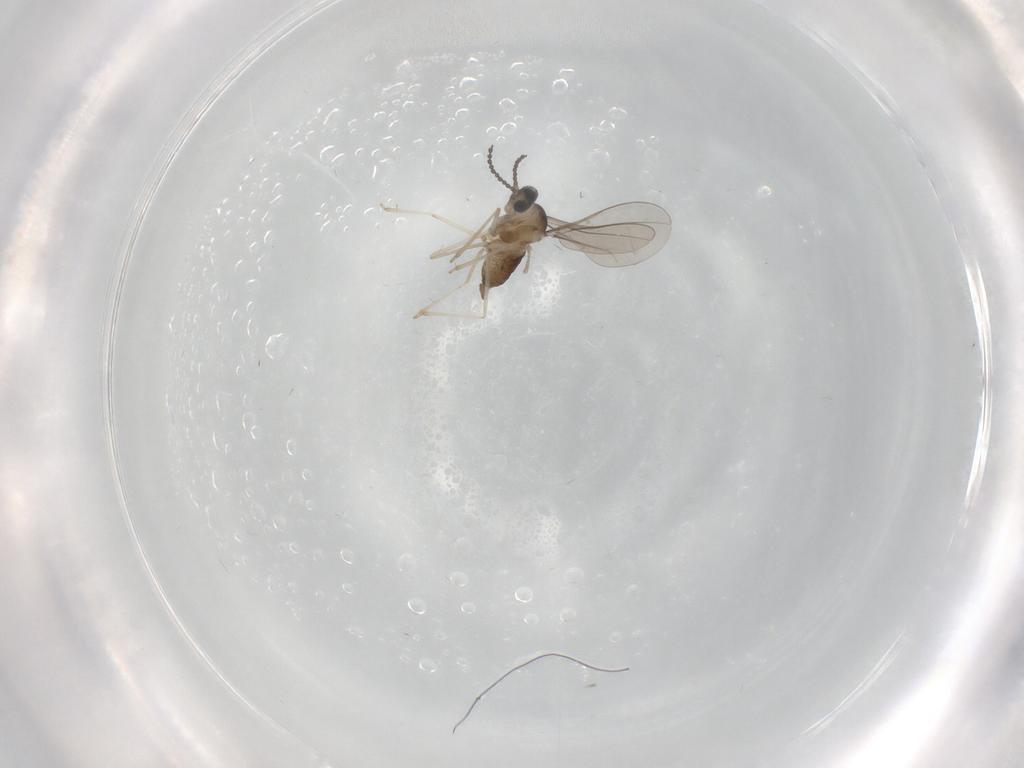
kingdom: Animalia
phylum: Arthropoda
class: Insecta
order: Diptera
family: Cecidomyiidae
